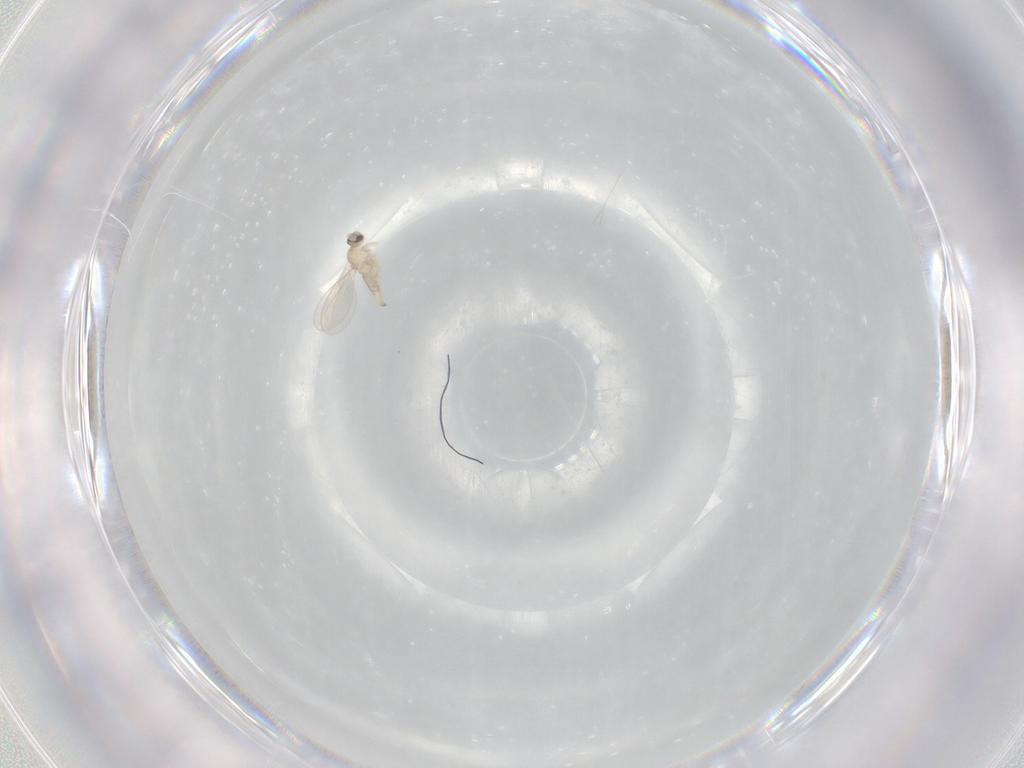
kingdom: Animalia
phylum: Arthropoda
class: Insecta
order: Diptera
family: Cecidomyiidae
